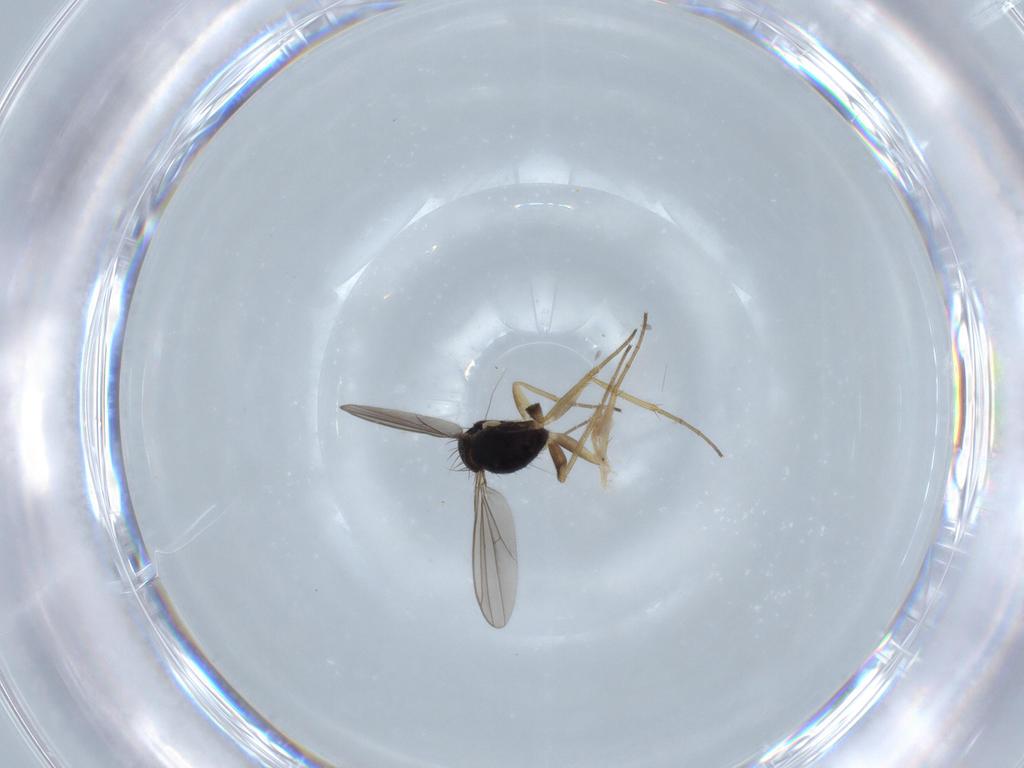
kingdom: Animalia
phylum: Arthropoda
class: Insecta
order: Diptera
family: Dolichopodidae
